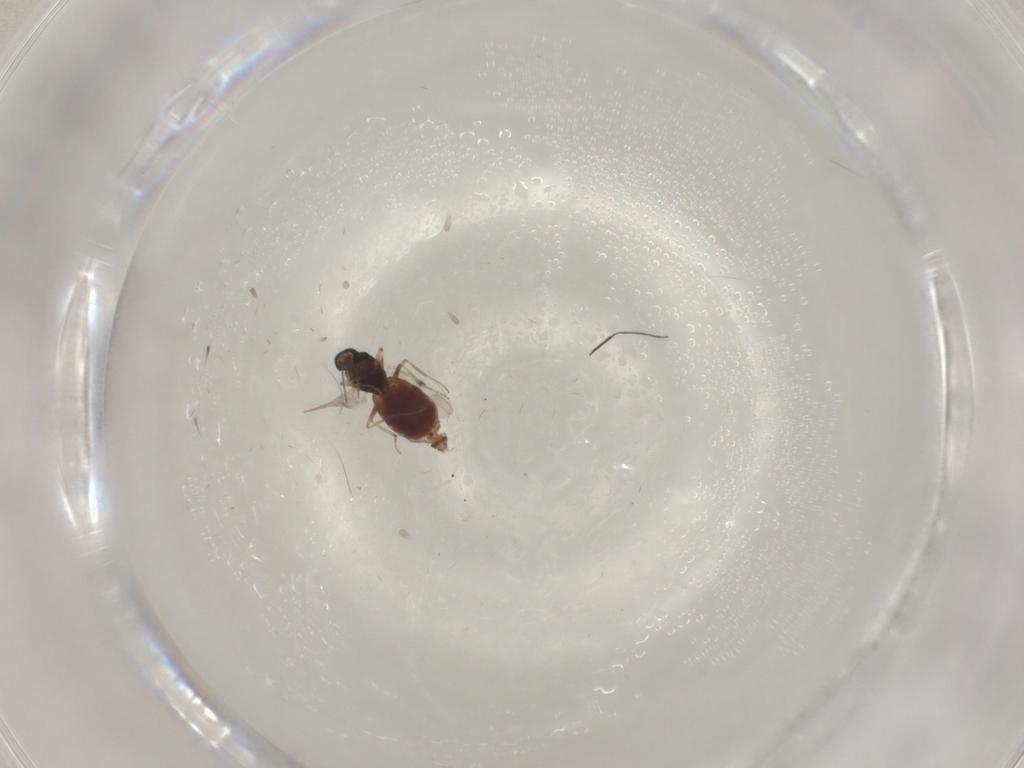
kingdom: Animalia
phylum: Arthropoda
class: Insecta
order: Diptera
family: Cecidomyiidae
